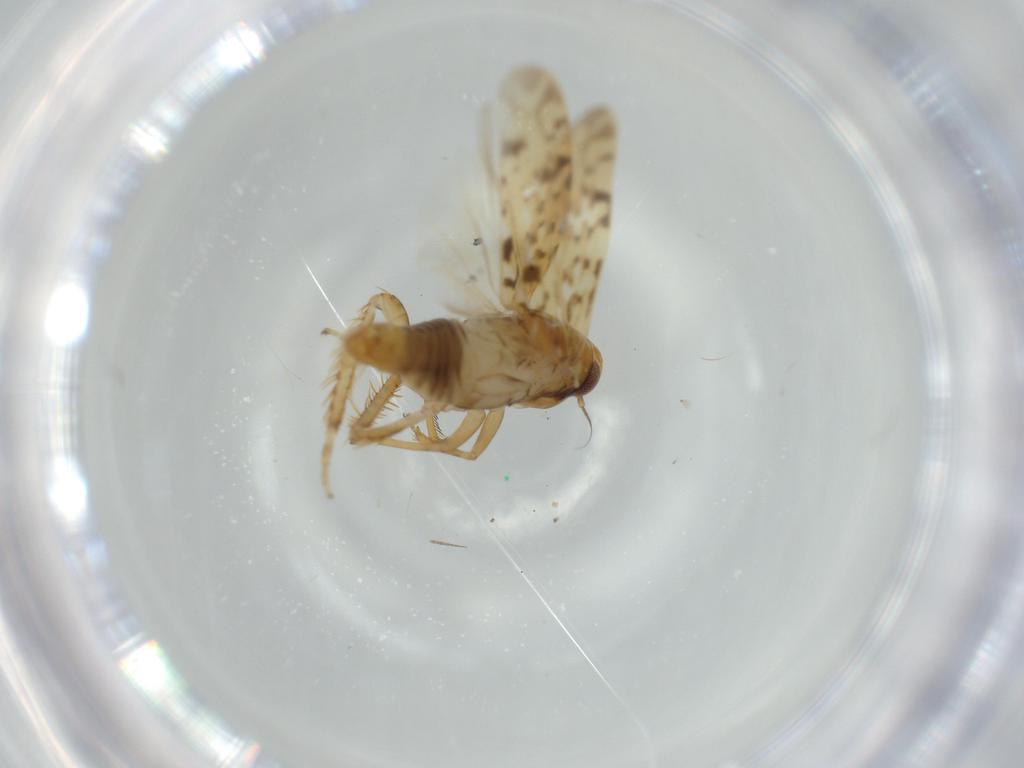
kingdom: Animalia
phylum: Arthropoda
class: Insecta
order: Hemiptera
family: Cicadellidae
